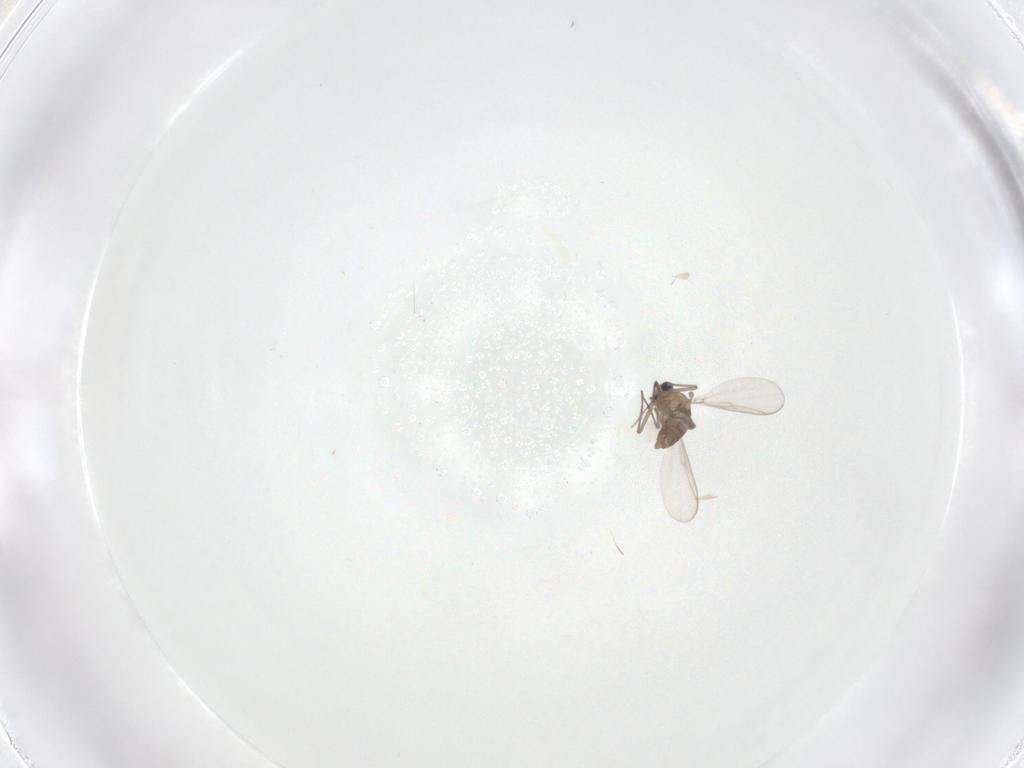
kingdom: Animalia
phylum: Arthropoda
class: Insecta
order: Diptera
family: Chironomidae
